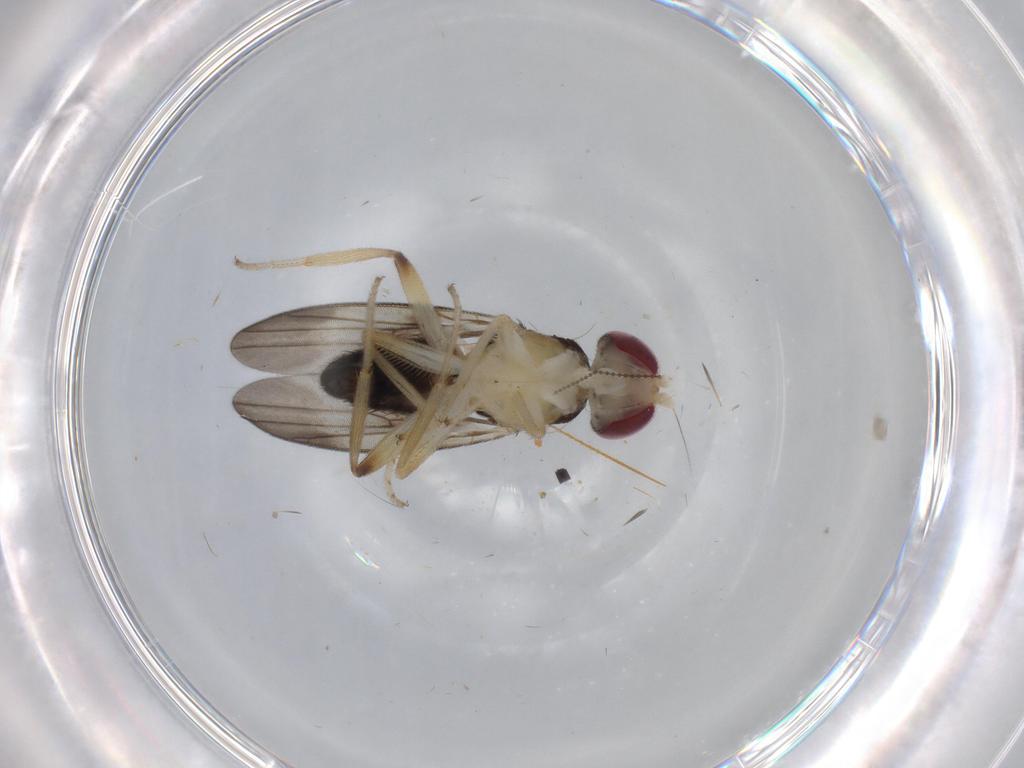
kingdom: Animalia
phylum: Arthropoda
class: Insecta
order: Diptera
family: Clusiidae
